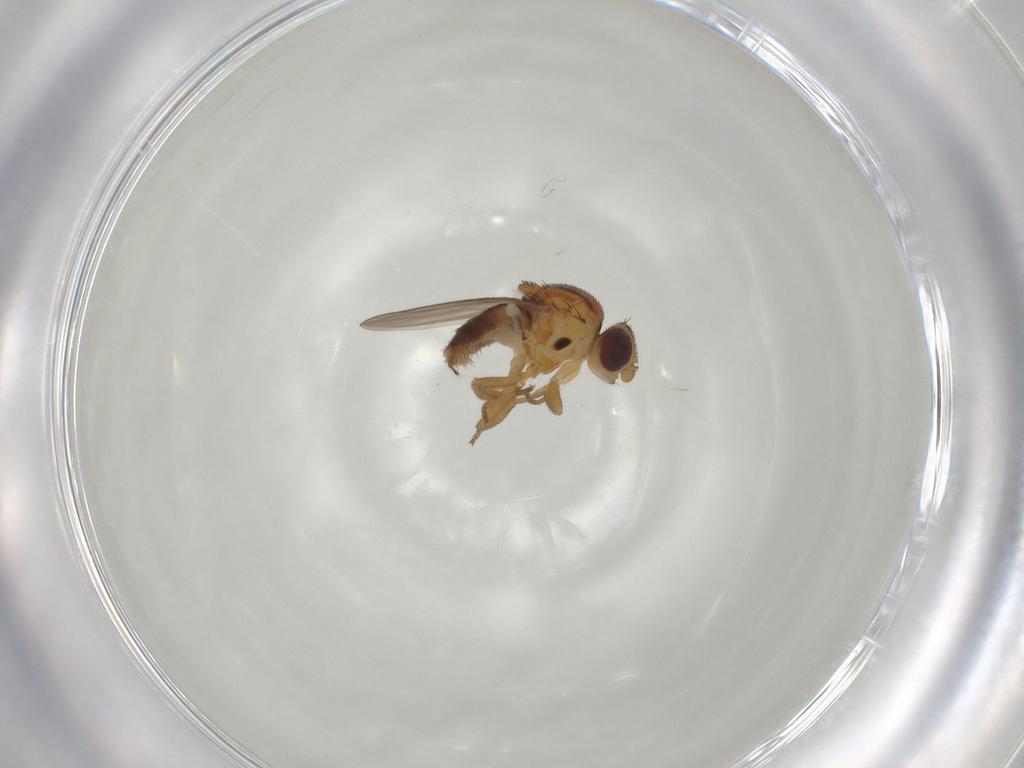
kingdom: Animalia
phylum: Arthropoda
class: Insecta
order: Diptera
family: Chloropidae
